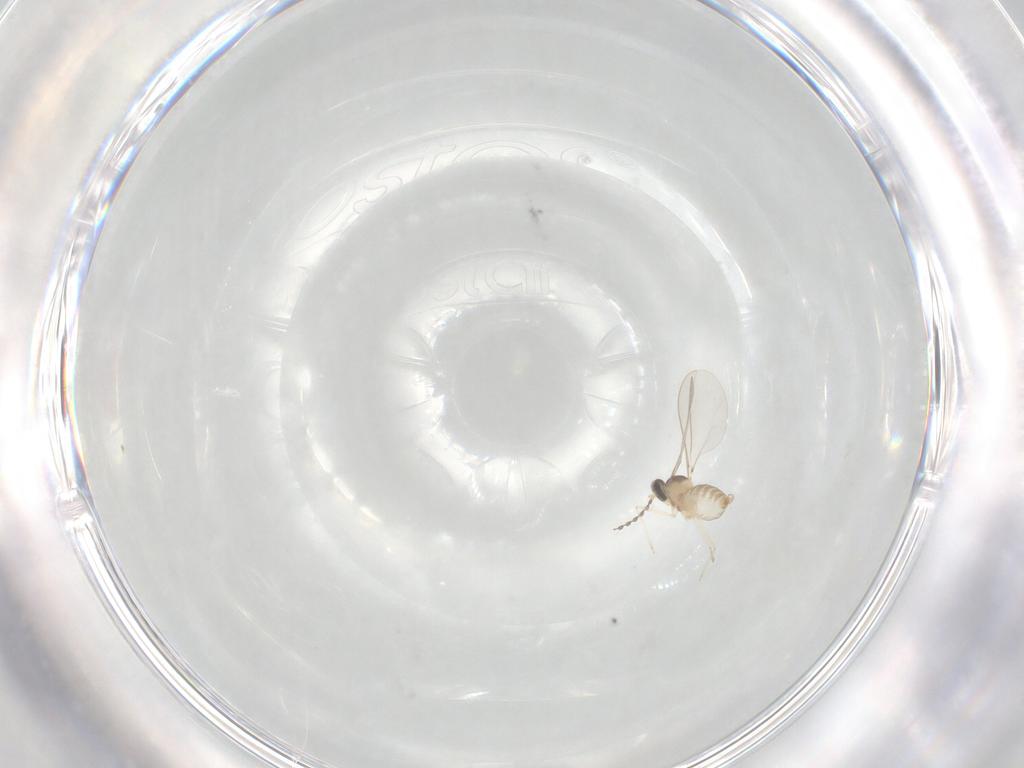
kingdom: Animalia
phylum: Arthropoda
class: Insecta
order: Diptera
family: Cecidomyiidae
